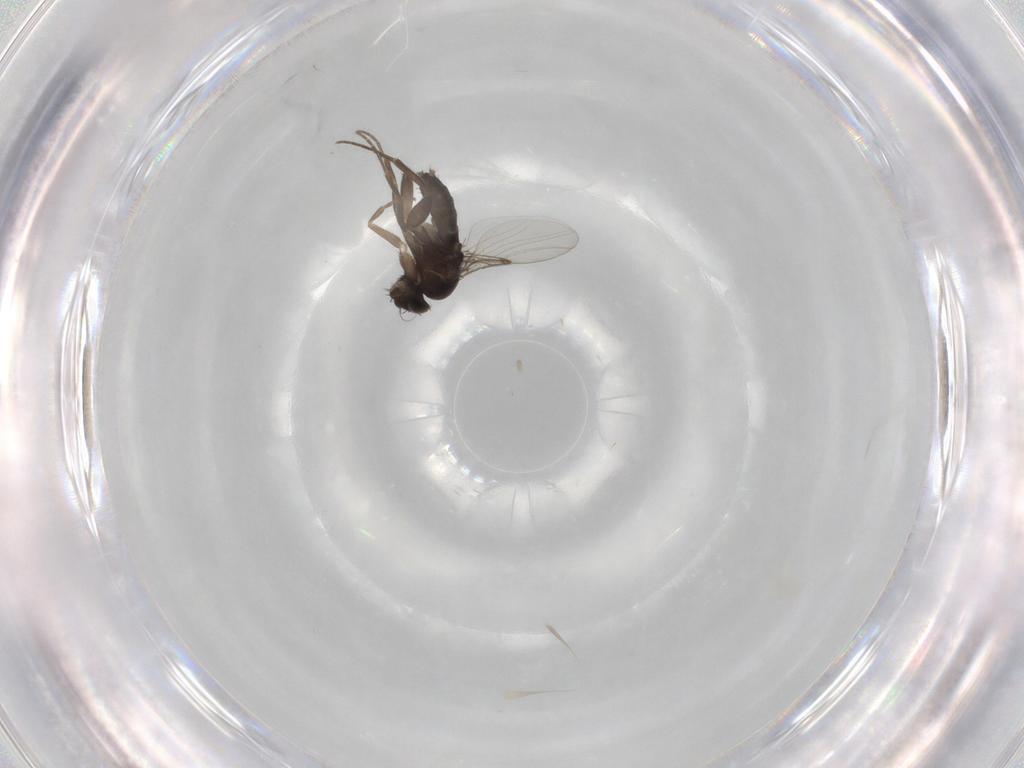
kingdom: Animalia
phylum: Arthropoda
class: Insecta
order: Diptera
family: Phoridae
